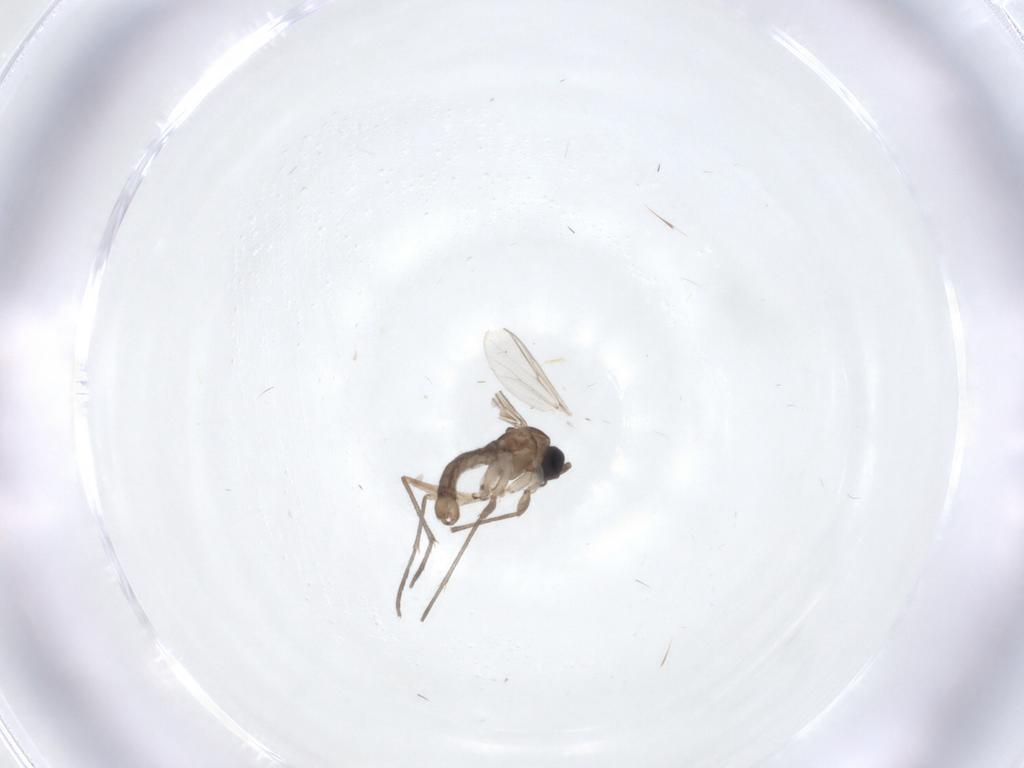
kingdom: Animalia
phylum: Arthropoda
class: Insecta
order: Diptera
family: Sciaridae
